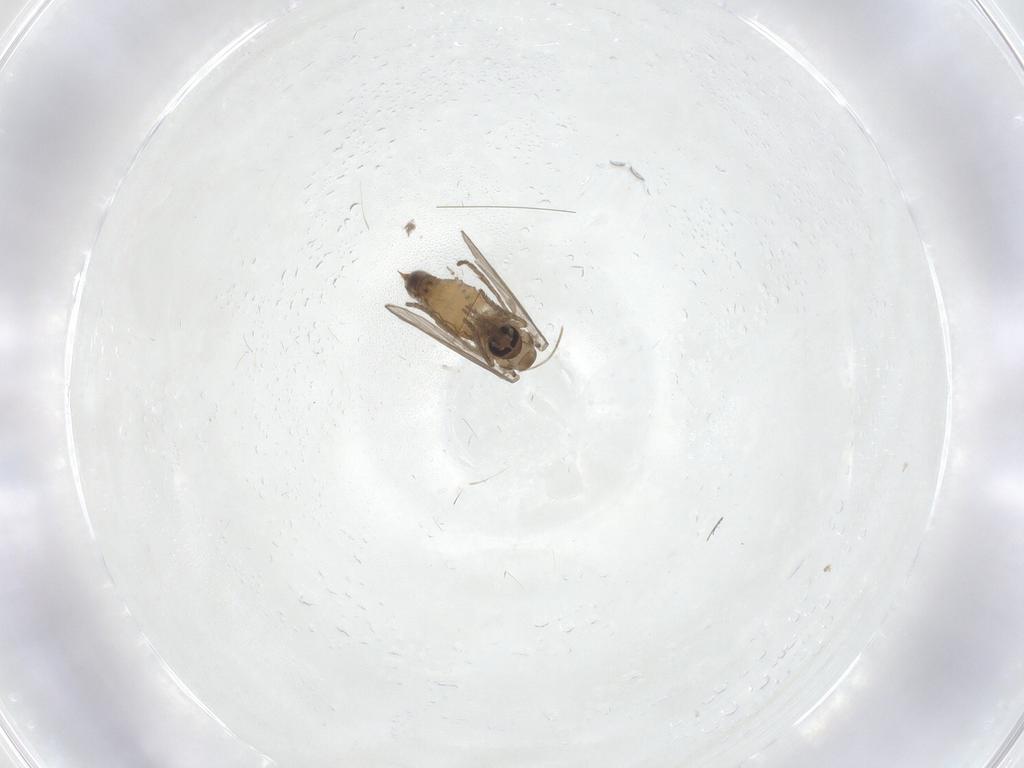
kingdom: Animalia
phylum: Arthropoda
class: Insecta
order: Diptera
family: Psychodidae
